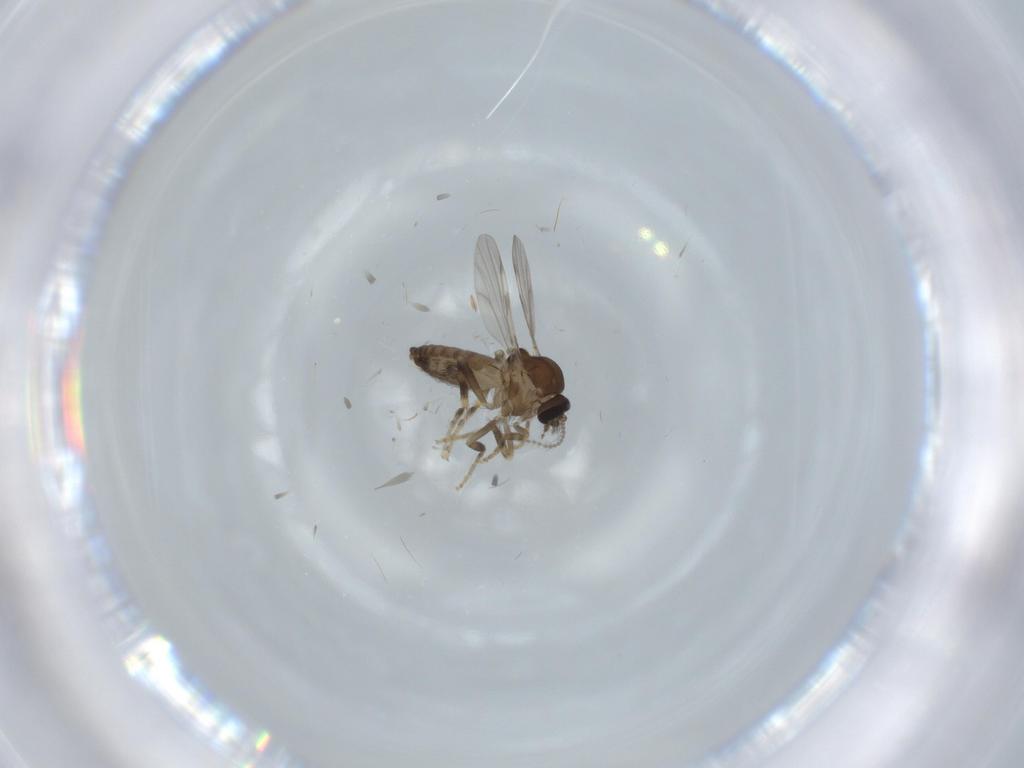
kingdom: Animalia
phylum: Arthropoda
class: Insecta
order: Diptera
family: Ceratopogonidae
